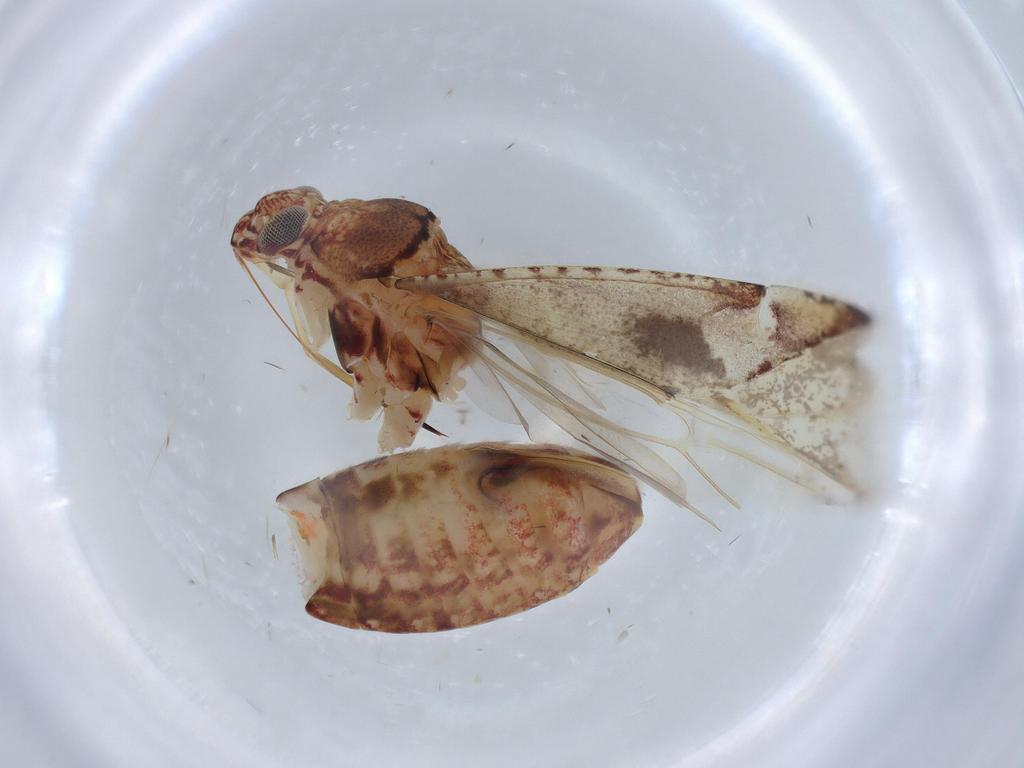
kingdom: Animalia
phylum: Arthropoda
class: Insecta
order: Hemiptera
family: Miridae
